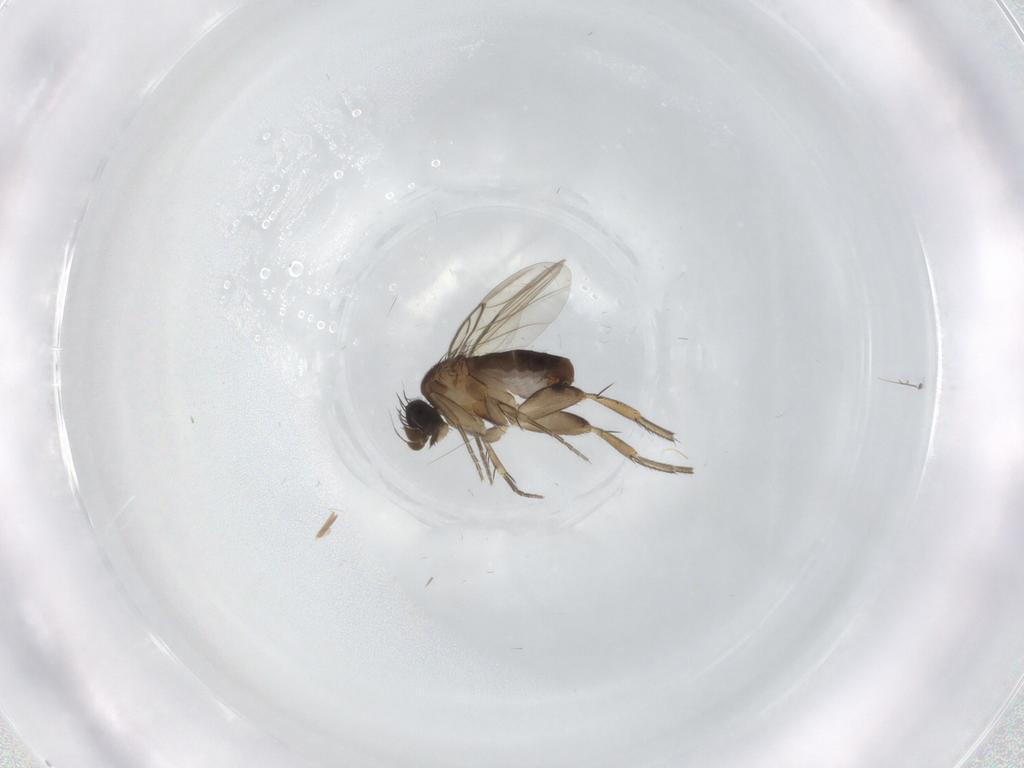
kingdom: Animalia
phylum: Arthropoda
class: Insecta
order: Diptera
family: Phoridae
